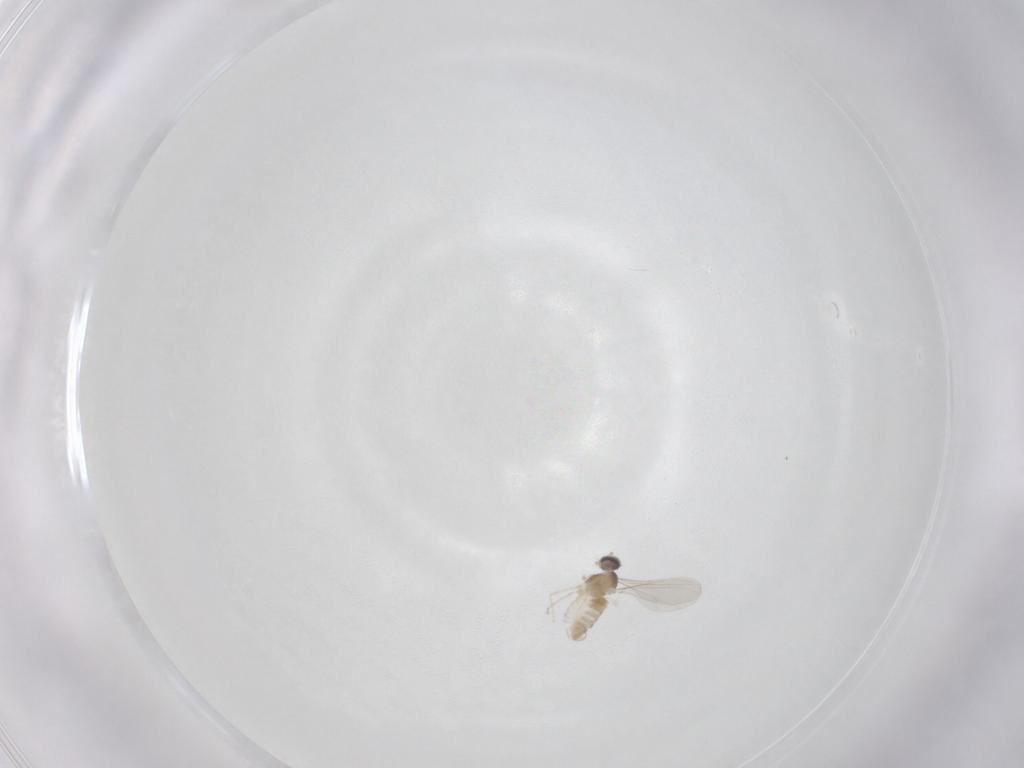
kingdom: Animalia
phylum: Arthropoda
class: Insecta
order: Diptera
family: Cecidomyiidae
